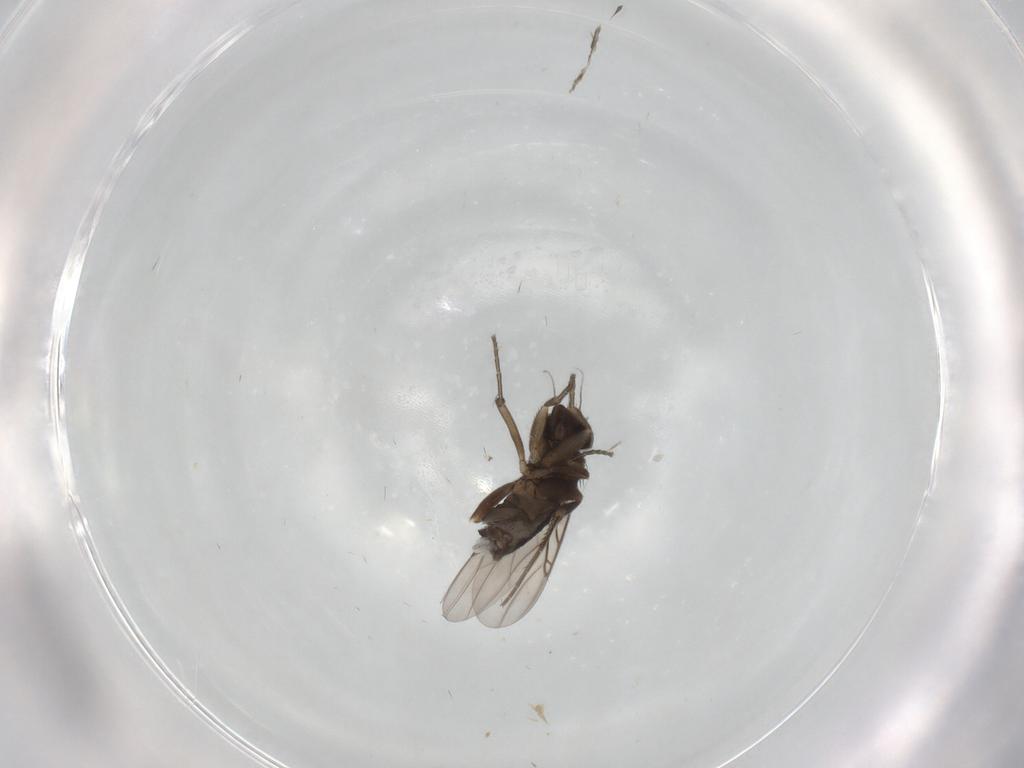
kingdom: Animalia
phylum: Arthropoda
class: Insecta
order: Diptera
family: Phoridae
